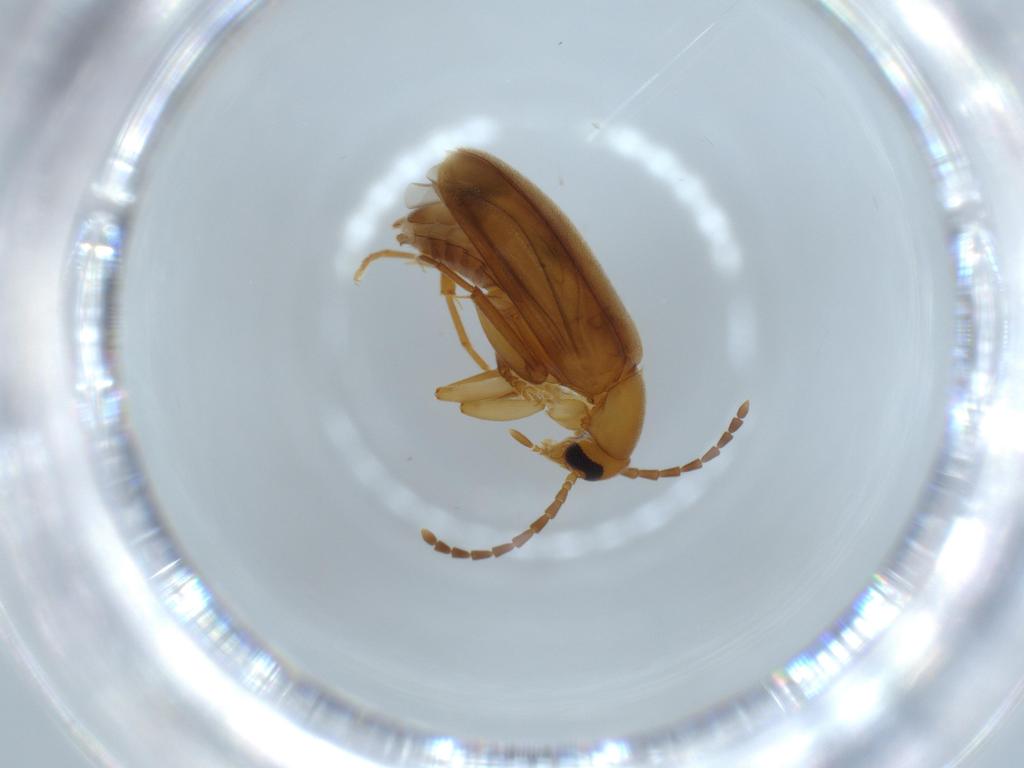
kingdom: Animalia
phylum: Arthropoda
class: Insecta
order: Coleoptera
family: Scraptiidae
